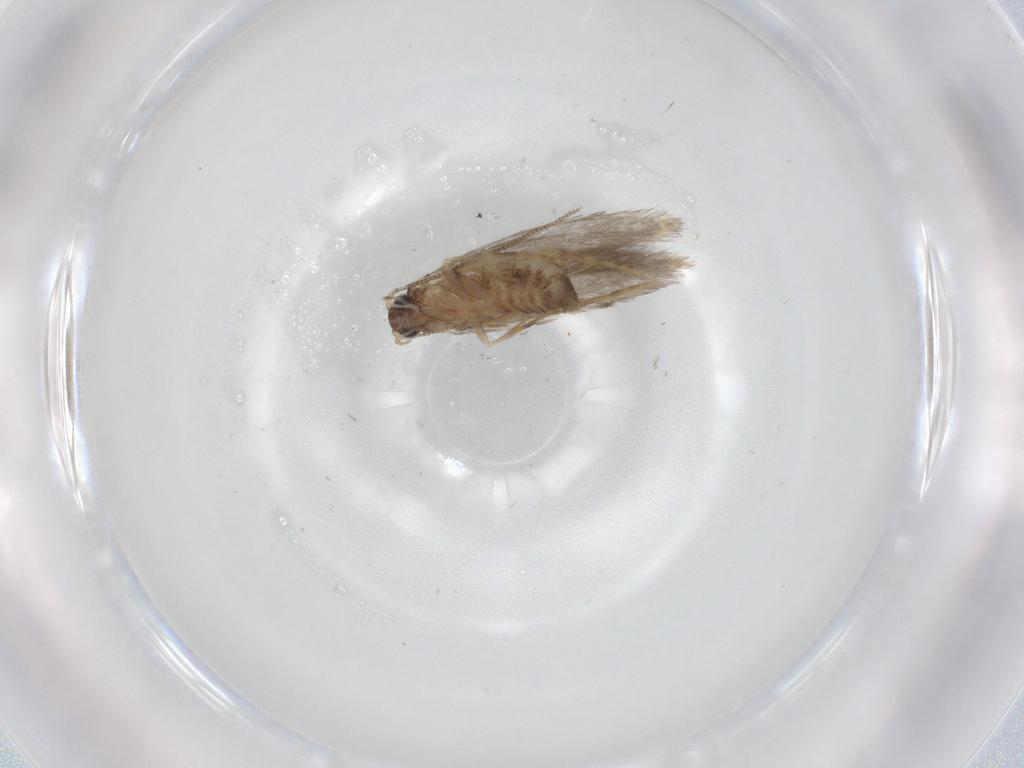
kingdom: Animalia
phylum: Arthropoda
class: Insecta
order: Lepidoptera
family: Tineidae
